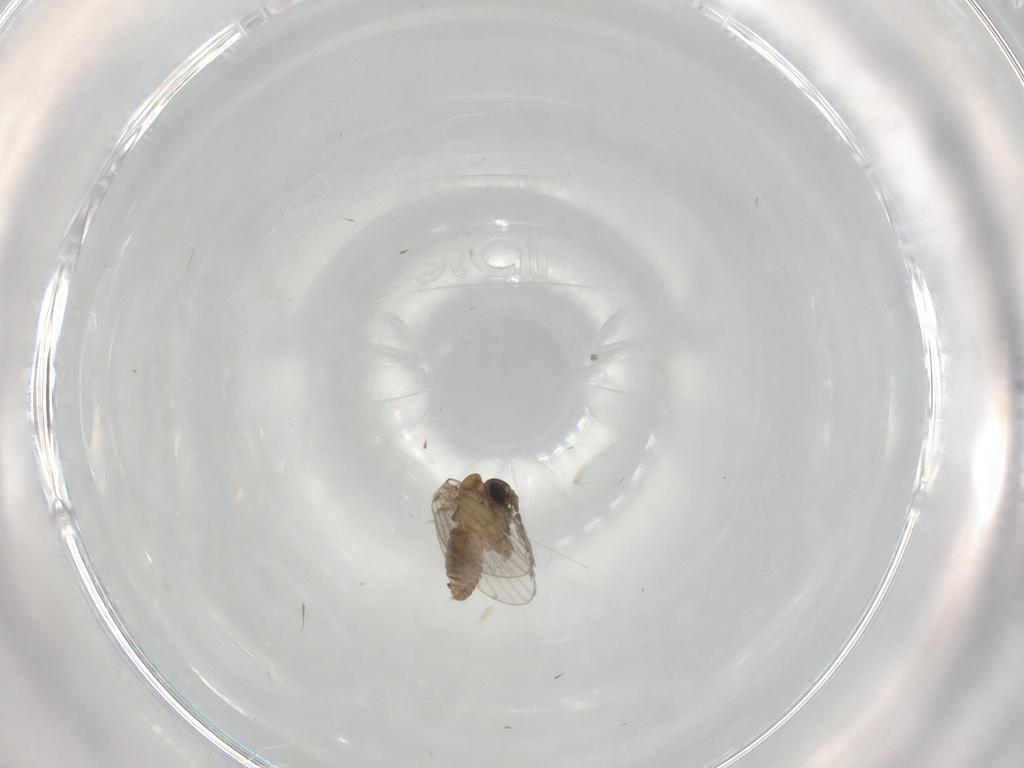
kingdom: Animalia
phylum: Arthropoda
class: Insecta
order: Diptera
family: Psychodidae
